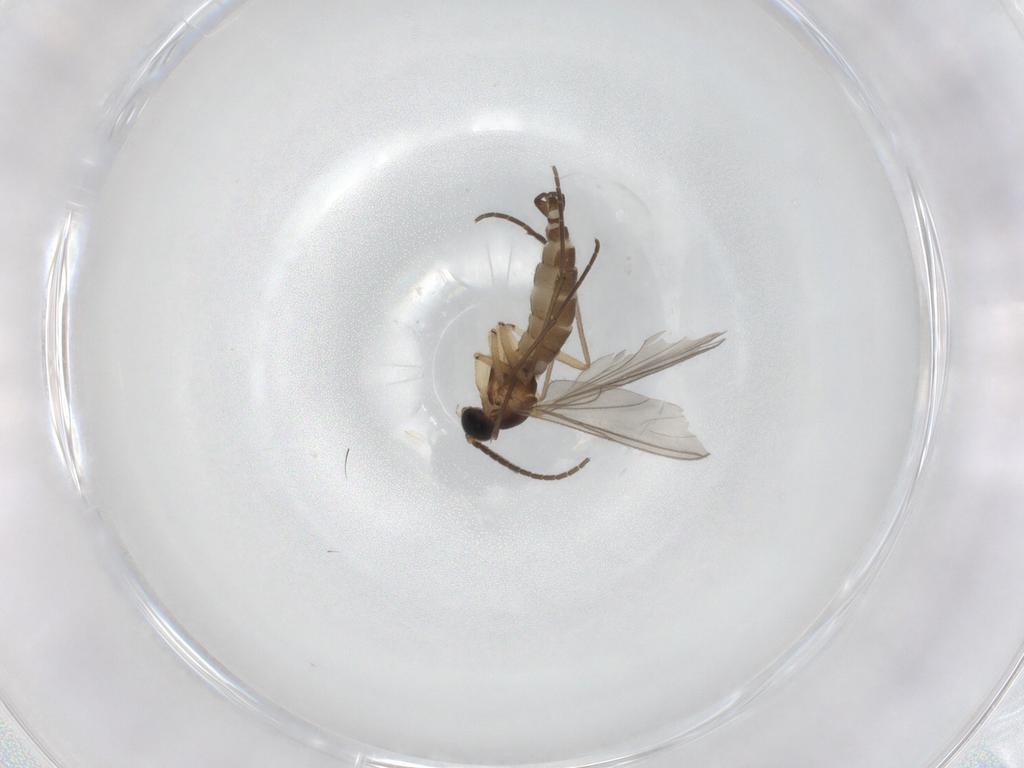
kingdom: Animalia
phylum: Arthropoda
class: Insecta
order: Diptera
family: Sciaridae
